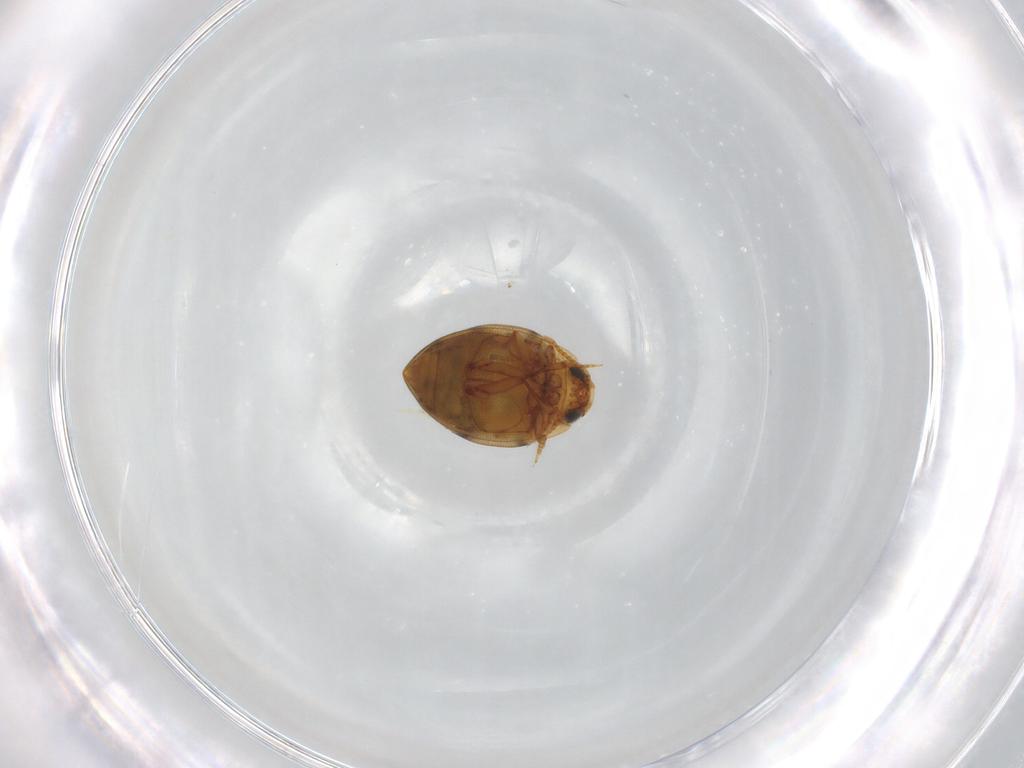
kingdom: Animalia
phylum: Arthropoda
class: Insecta
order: Coleoptera
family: Dytiscidae
